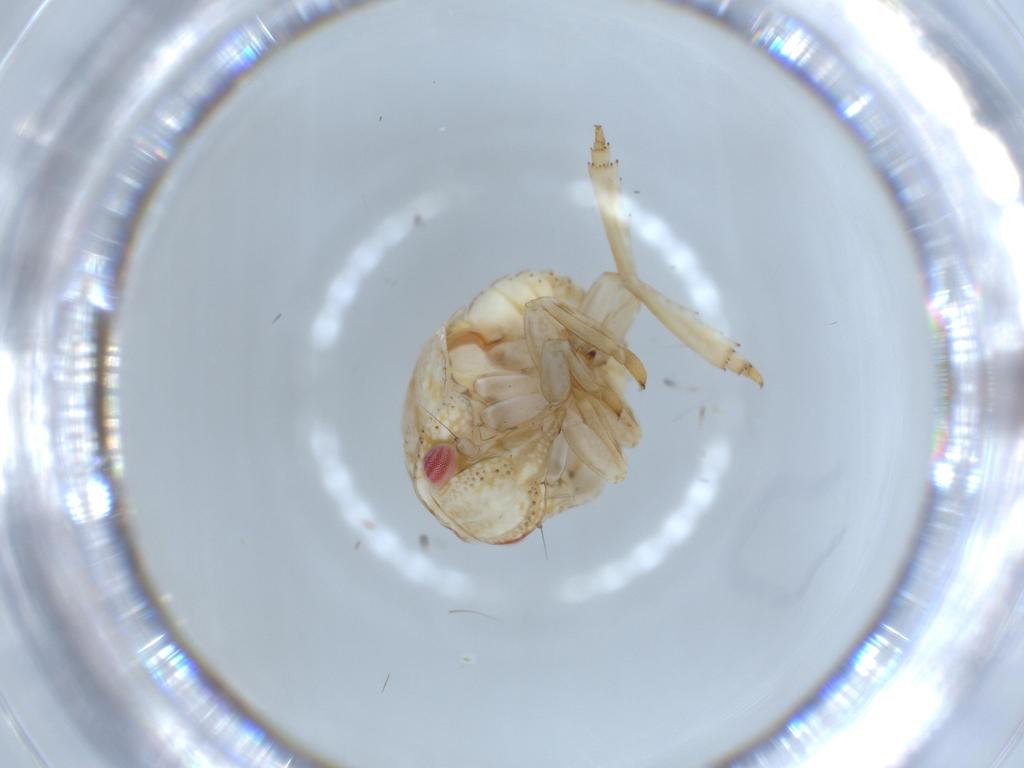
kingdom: Animalia
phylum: Arthropoda
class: Insecta
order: Hemiptera
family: Acanaloniidae
